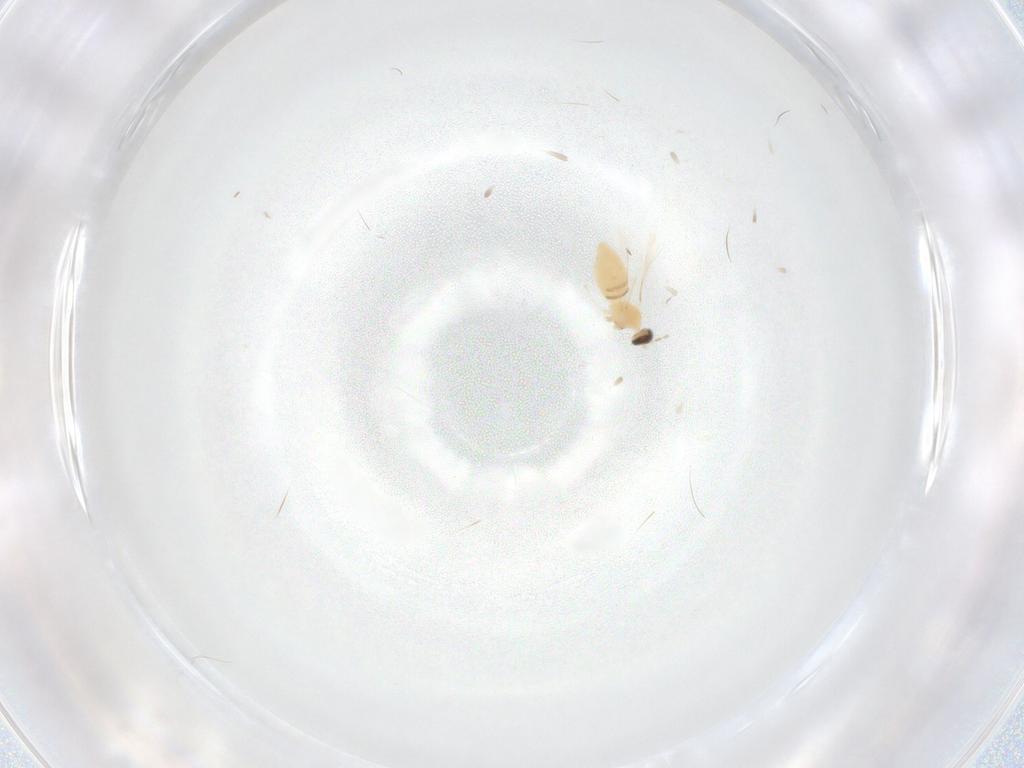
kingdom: Animalia
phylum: Arthropoda
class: Insecta
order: Diptera
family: Cecidomyiidae
